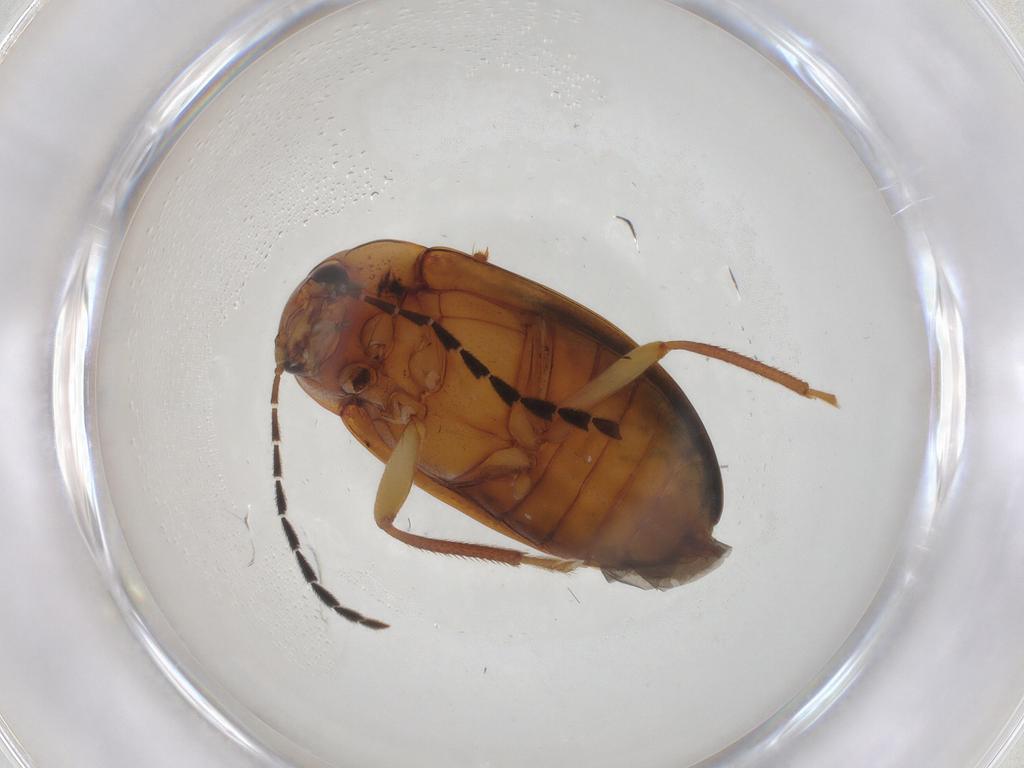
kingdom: Animalia
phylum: Arthropoda
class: Insecta
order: Coleoptera
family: Ptilodactylidae
